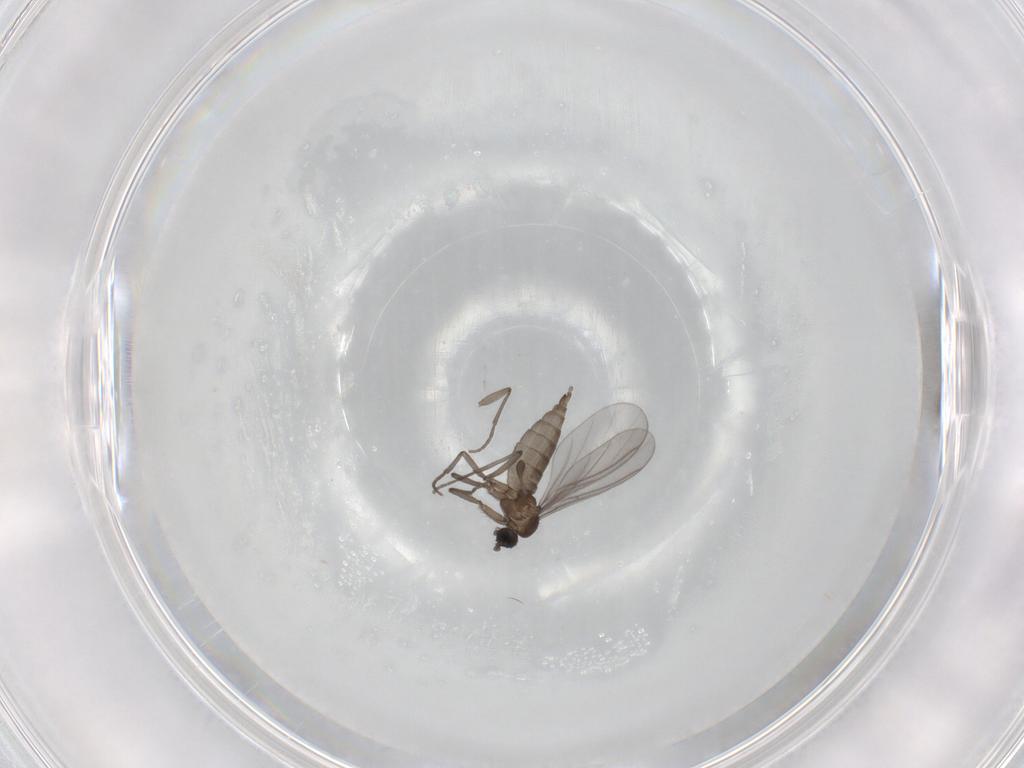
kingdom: Animalia
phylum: Arthropoda
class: Insecta
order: Diptera
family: Sciaridae
